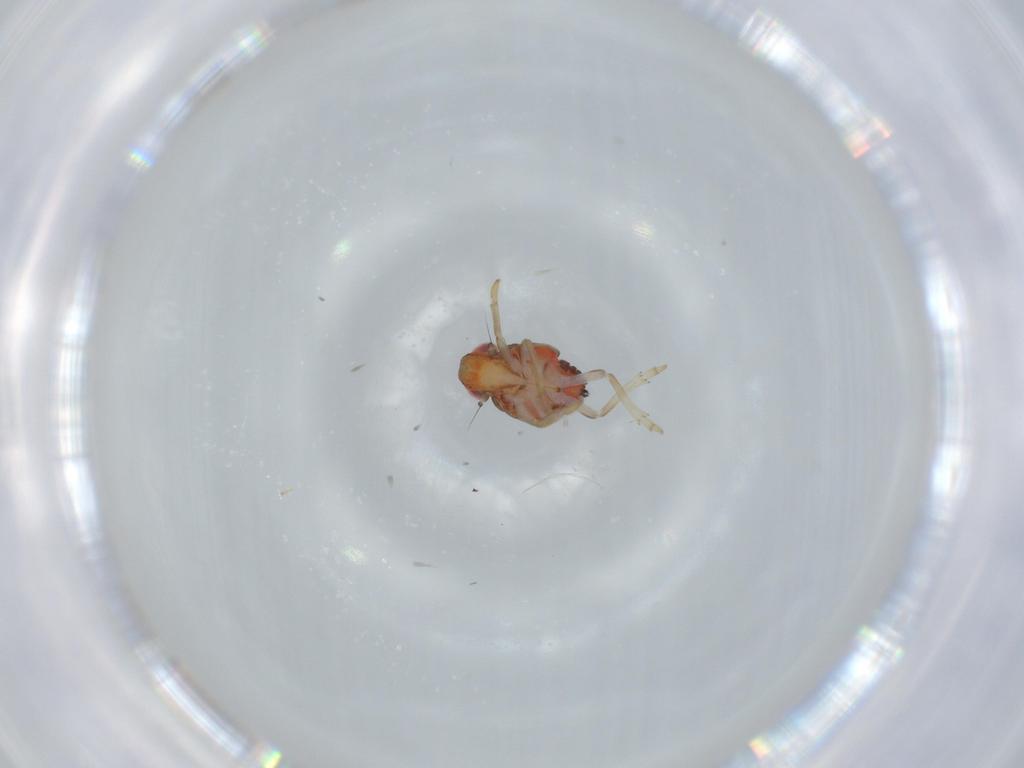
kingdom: Animalia
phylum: Arthropoda
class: Insecta
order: Hemiptera
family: Issidae
